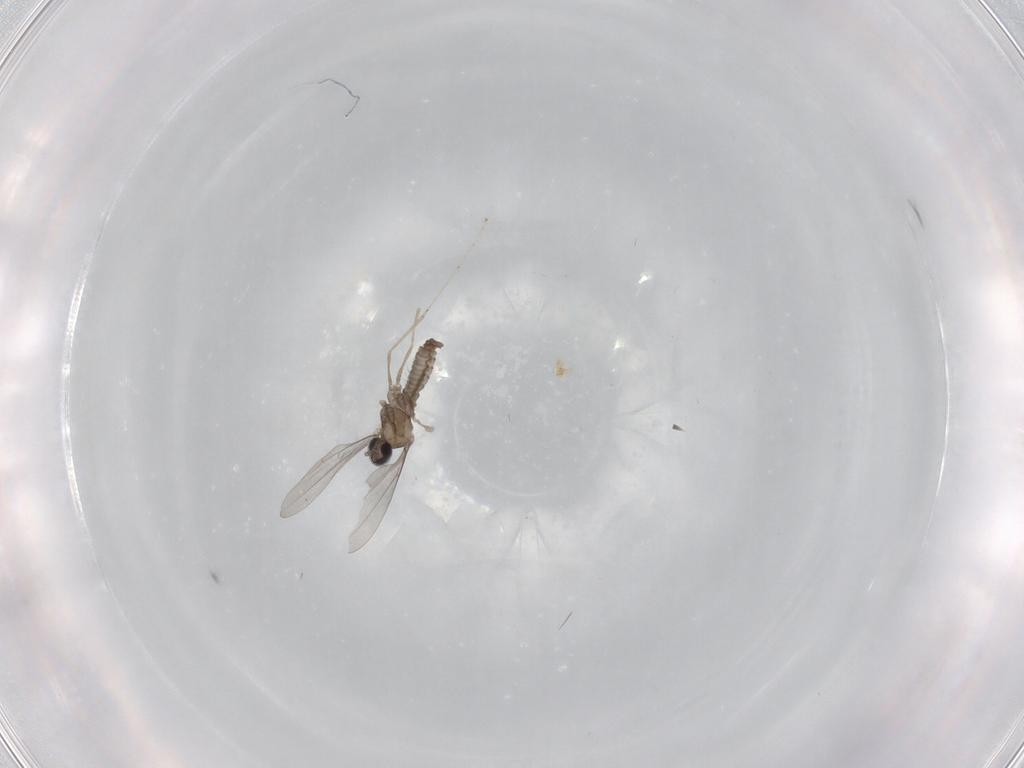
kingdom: Animalia
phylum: Arthropoda
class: Insecta
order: Diptera
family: Cecidomyiidae
